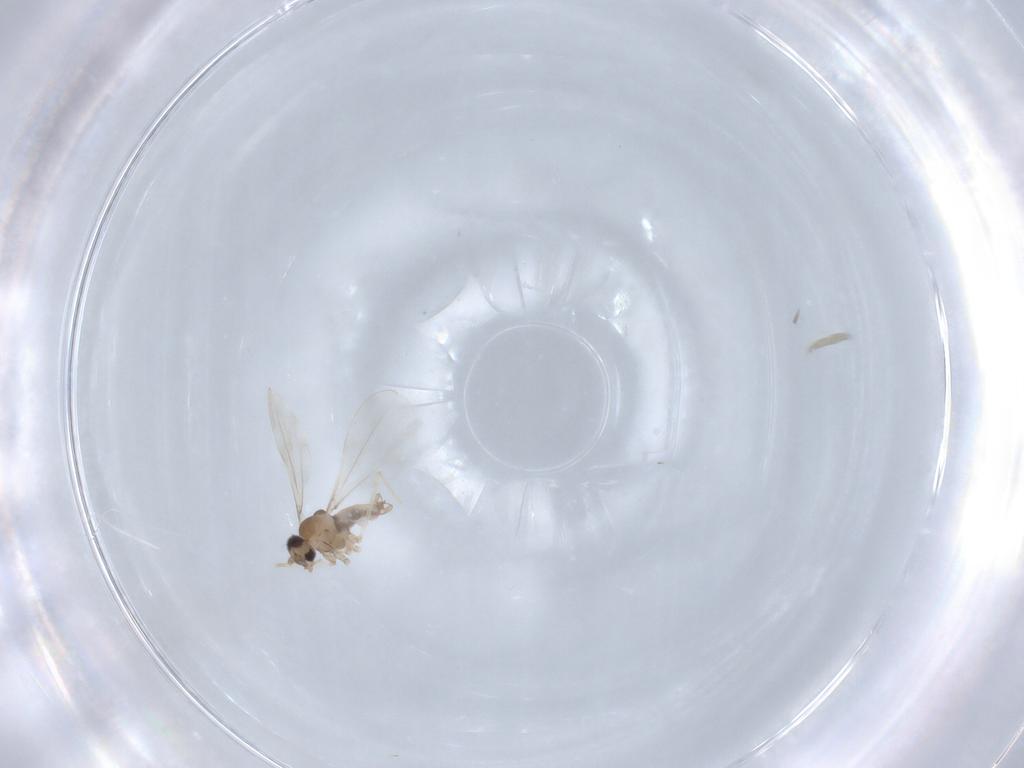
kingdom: Animalia
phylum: Arthropoda
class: Insecta
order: Diptera
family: Cecidomyiidae
